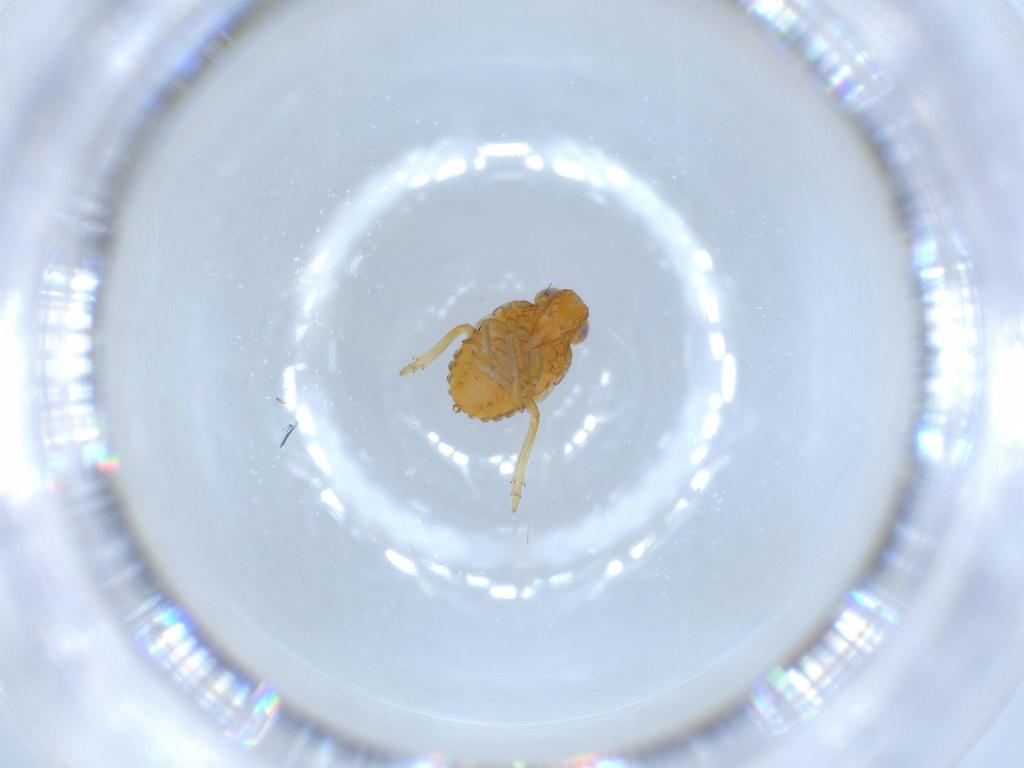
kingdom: Animalia
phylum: Arthropoda
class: Insecta
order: Hemiptera
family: Issidae
